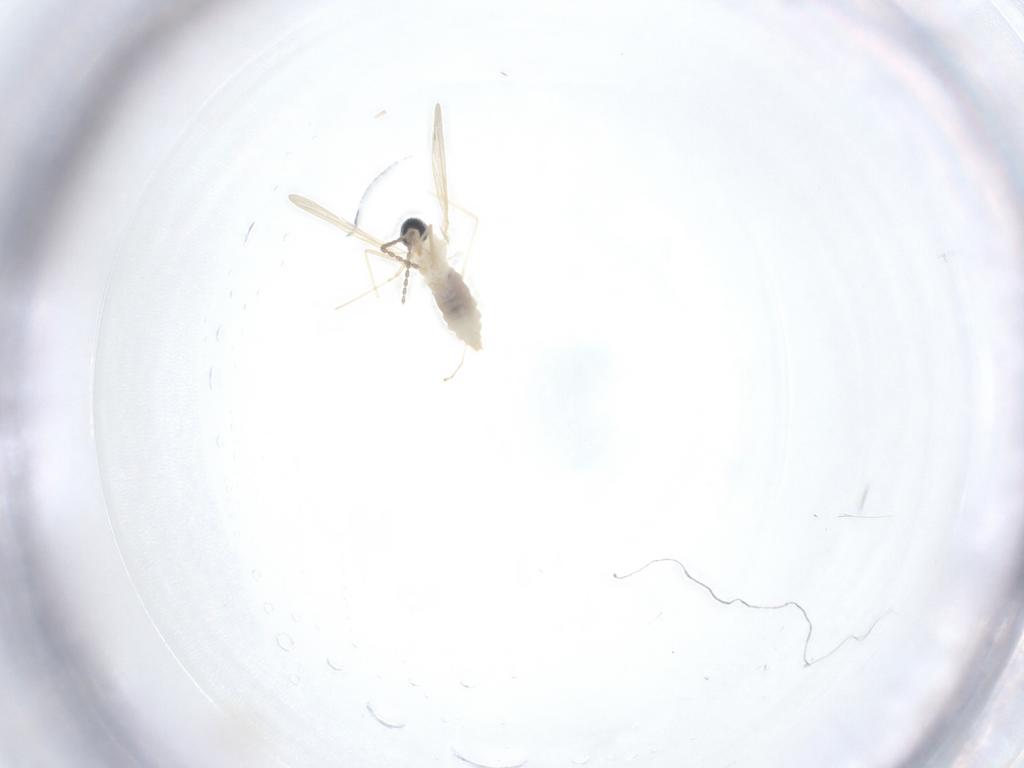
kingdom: Animalia
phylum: Arthropoda
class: Insecta
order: Diptera
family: Cecidomyiidae
